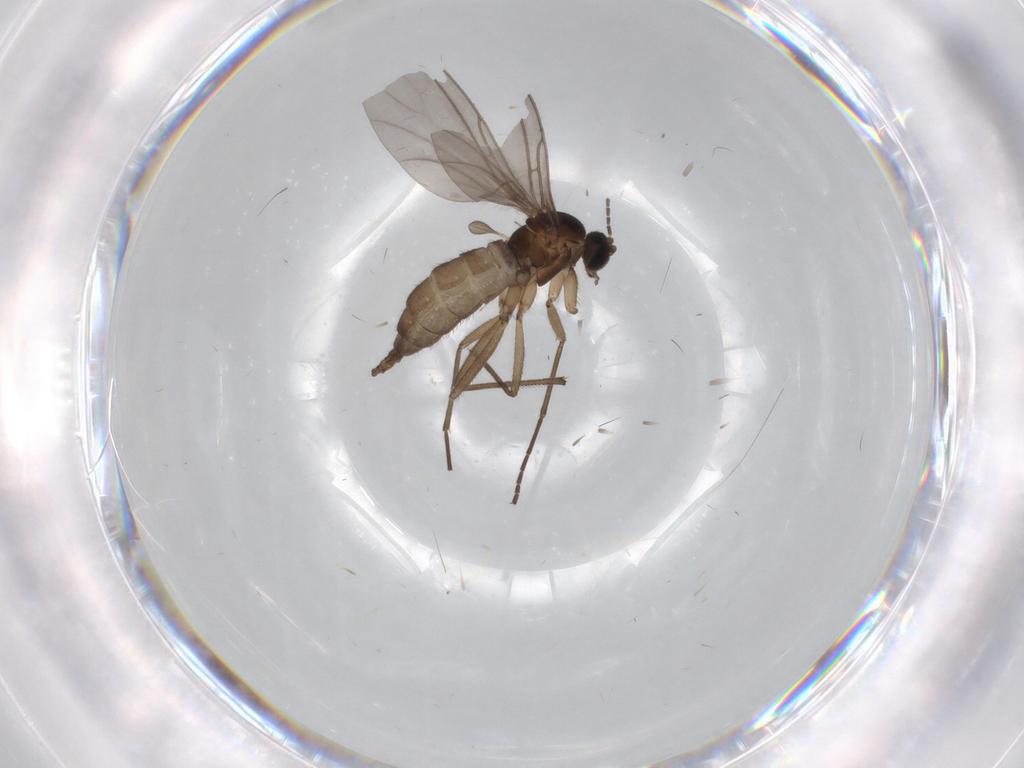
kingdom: Animalia
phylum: Arthropoda
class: Insecta
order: Diptera
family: Sciaridae
